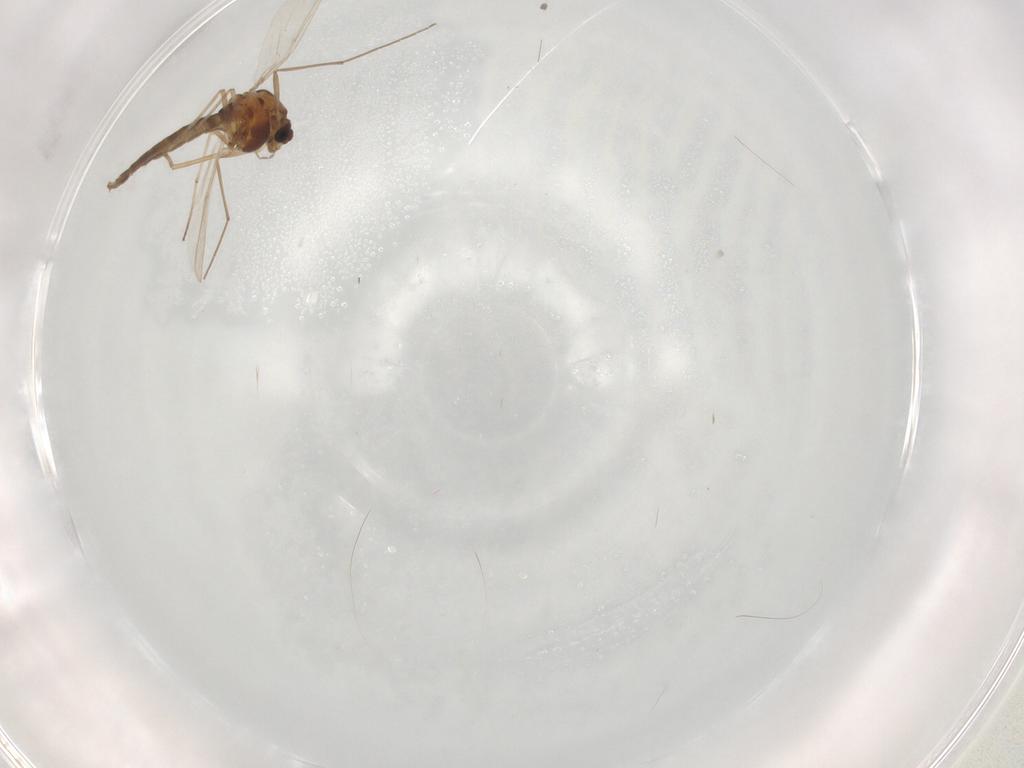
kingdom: Animalia
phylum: Arthropoda
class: Insecta
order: Diptera
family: Chironomidae
